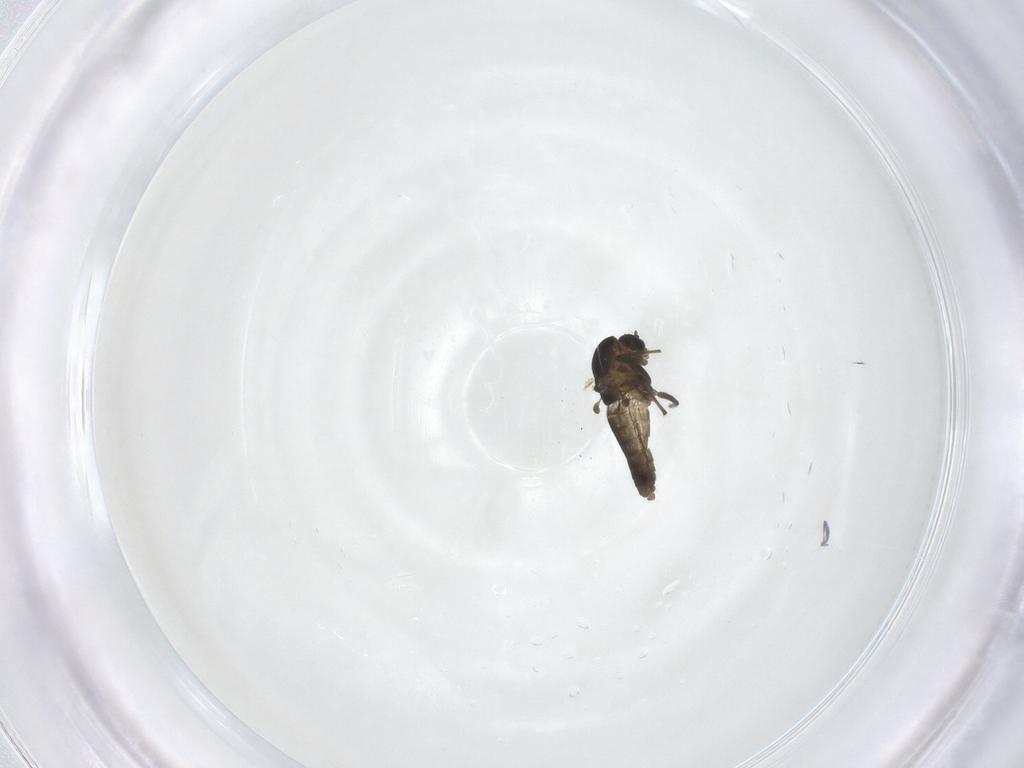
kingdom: Animalia
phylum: Arthropoda
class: Insecta
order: Diptera
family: Chironomidae
